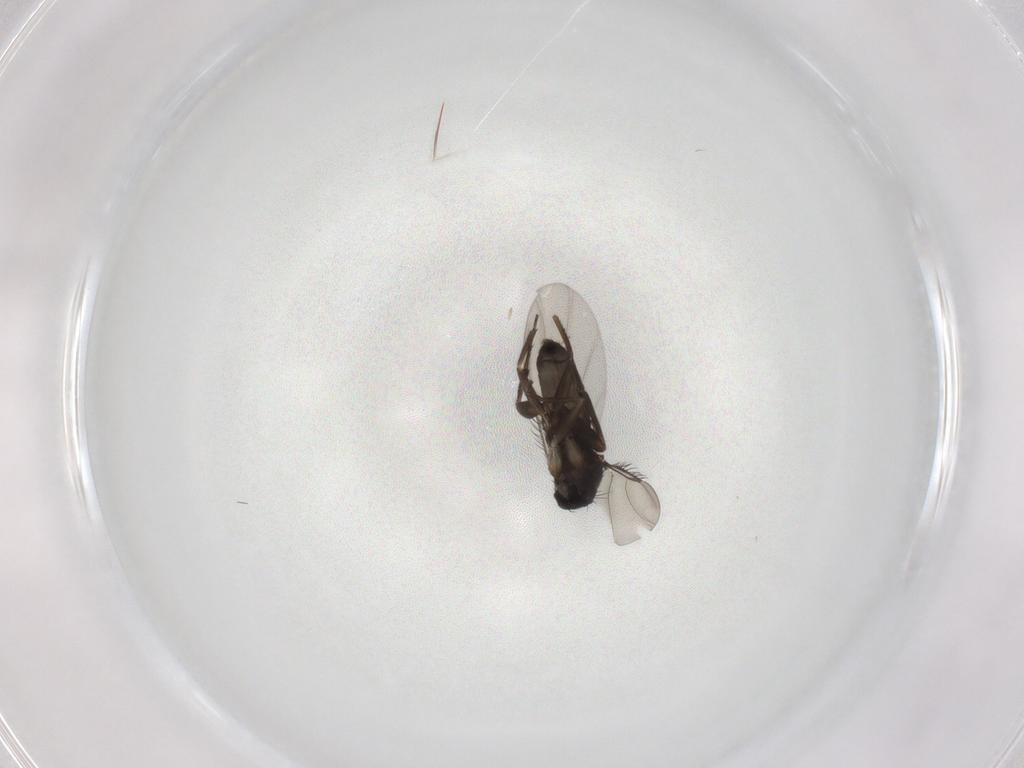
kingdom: Animalia
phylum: Arthropoda
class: Insecta
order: Diptera
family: Phoridae
